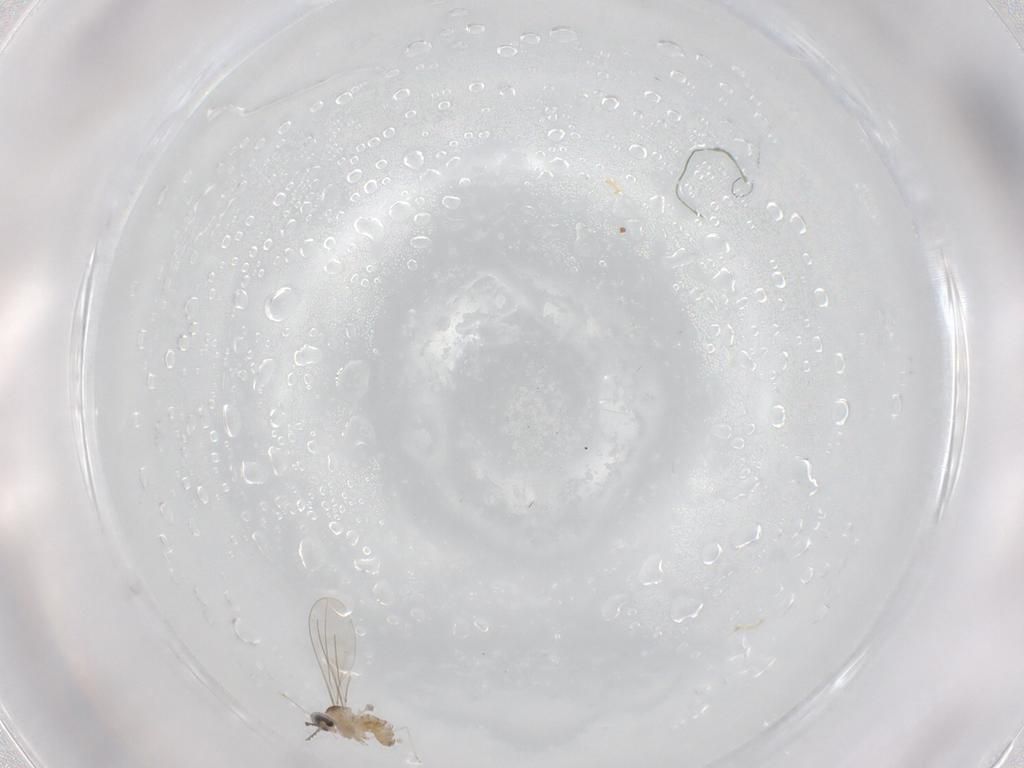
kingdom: Animalia
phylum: Arthropoda
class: Insecta
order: Diptera
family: Cecidomyiidae
